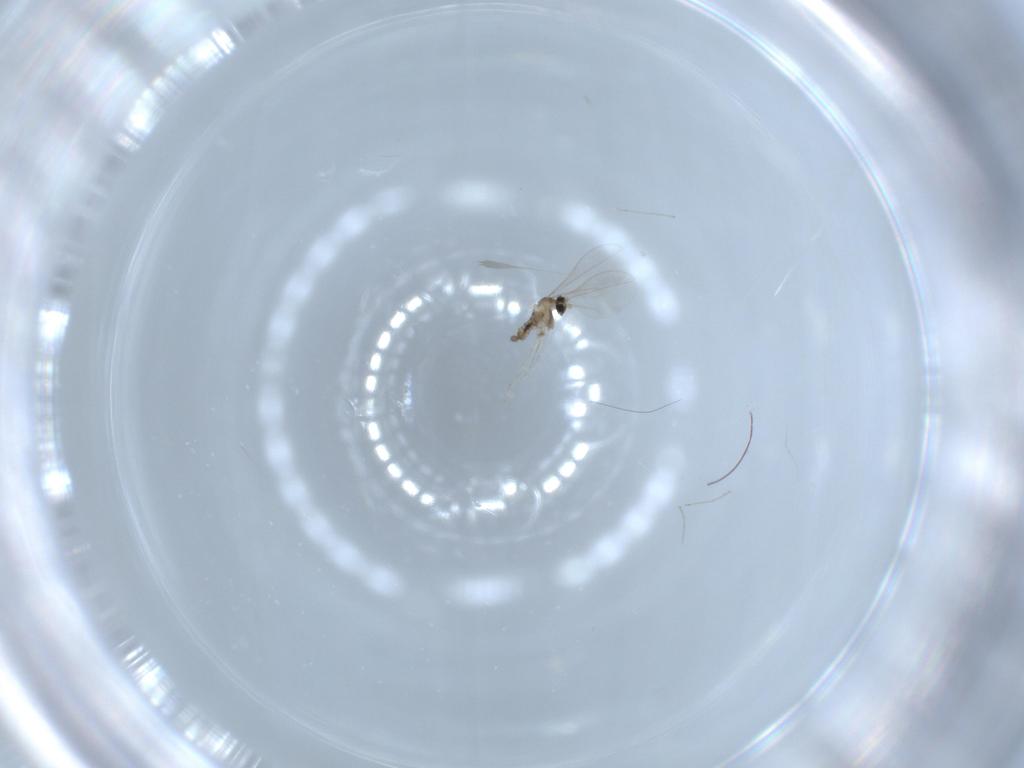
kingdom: Animalia
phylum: Arthropoda
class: Insecta
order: Diptera
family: Cecidomyiidae
